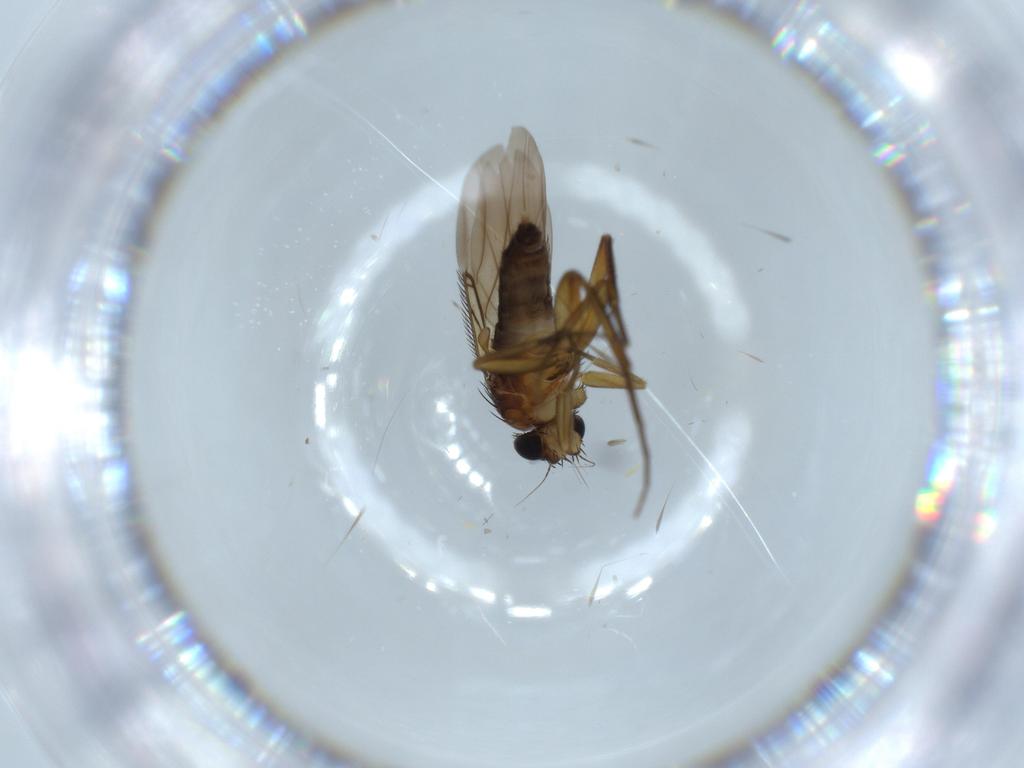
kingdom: Animalia
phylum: Arthropoda
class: Insecta
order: Diptera
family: Phoridae
